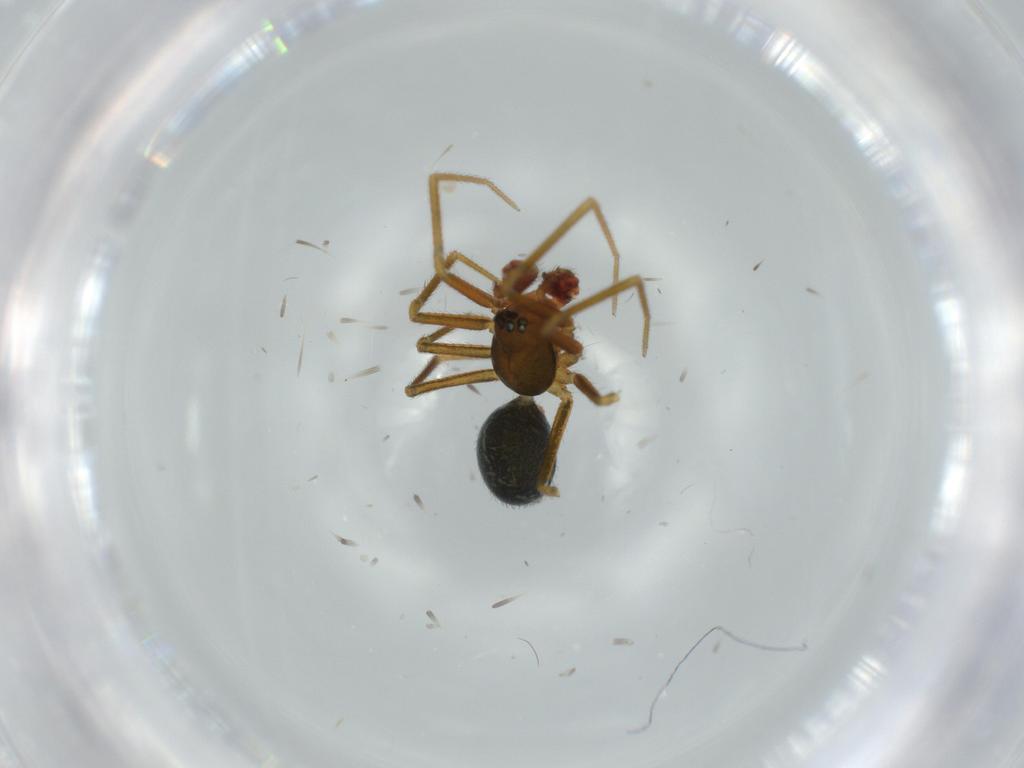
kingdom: Animalia
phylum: Arthropoda
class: Arachnida
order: Araneae
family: Linyphiidae
